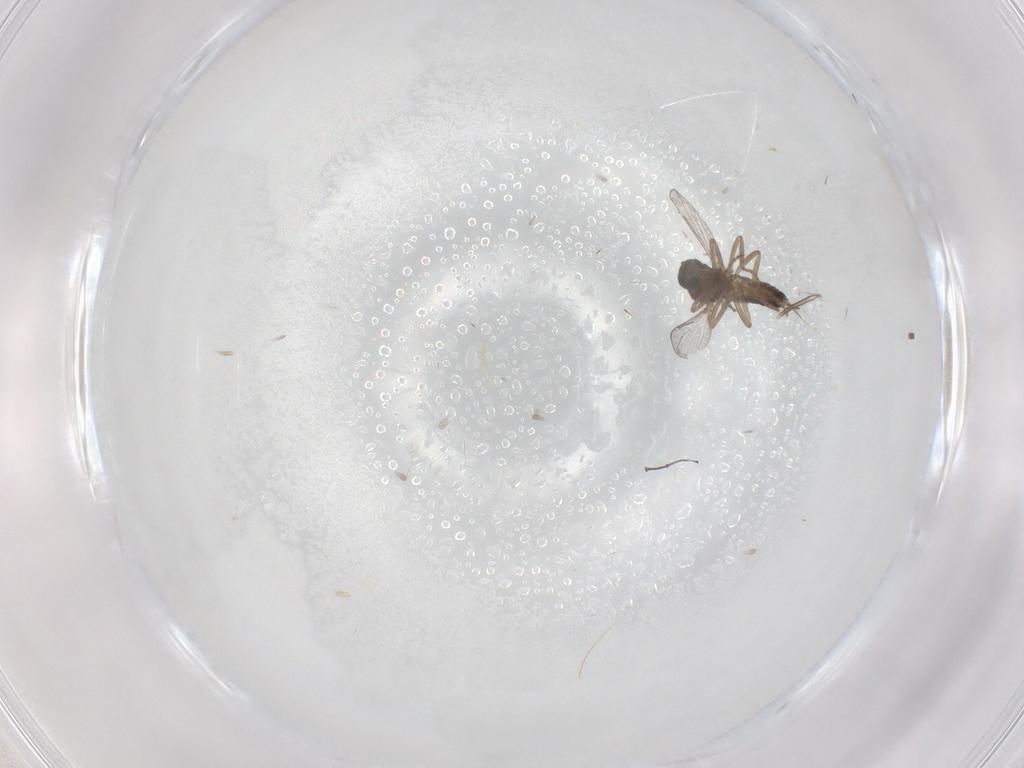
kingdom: Animalia
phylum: Arthropoda
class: Insecta
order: Diptera
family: Ceratopogonidae
